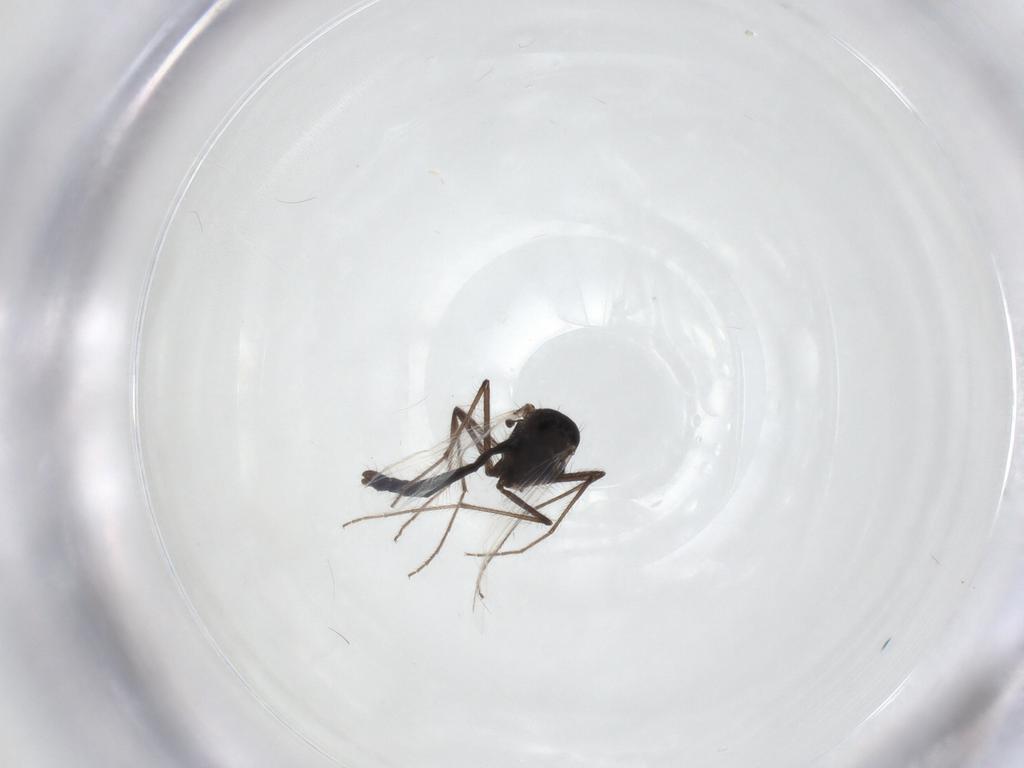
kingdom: Animalia
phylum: Arthropoda
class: Insecta
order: Diptera
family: Chironomidae
